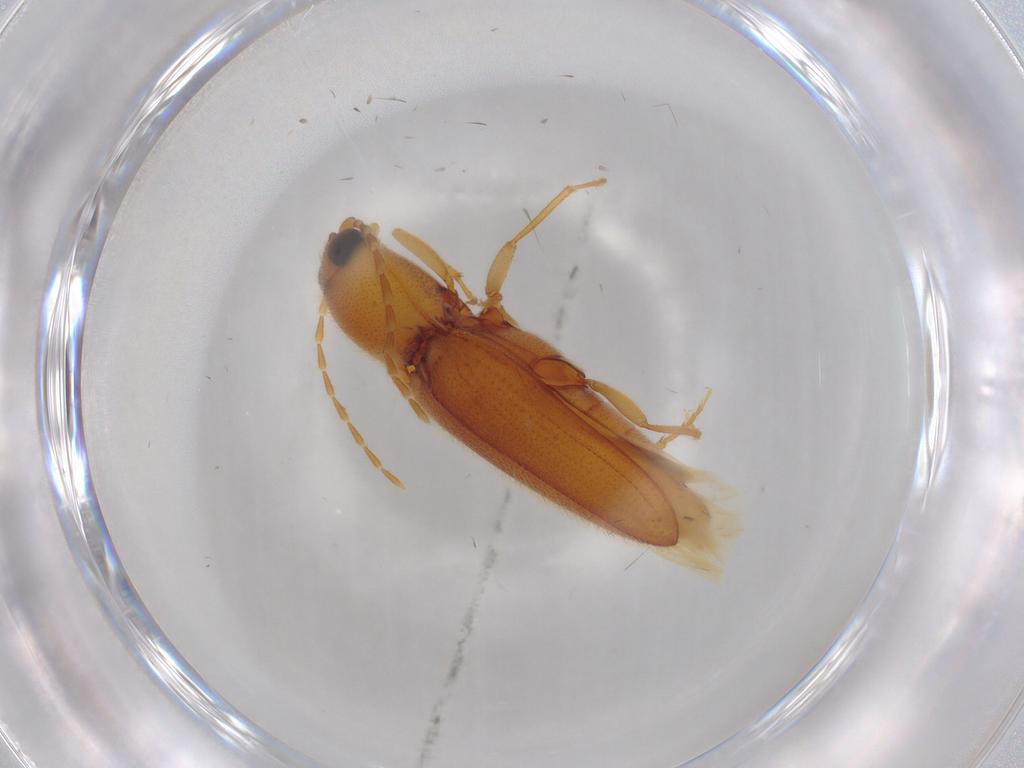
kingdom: Animalia
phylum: Arthropoda
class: Insecta
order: Coleoptera
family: Elateridae
